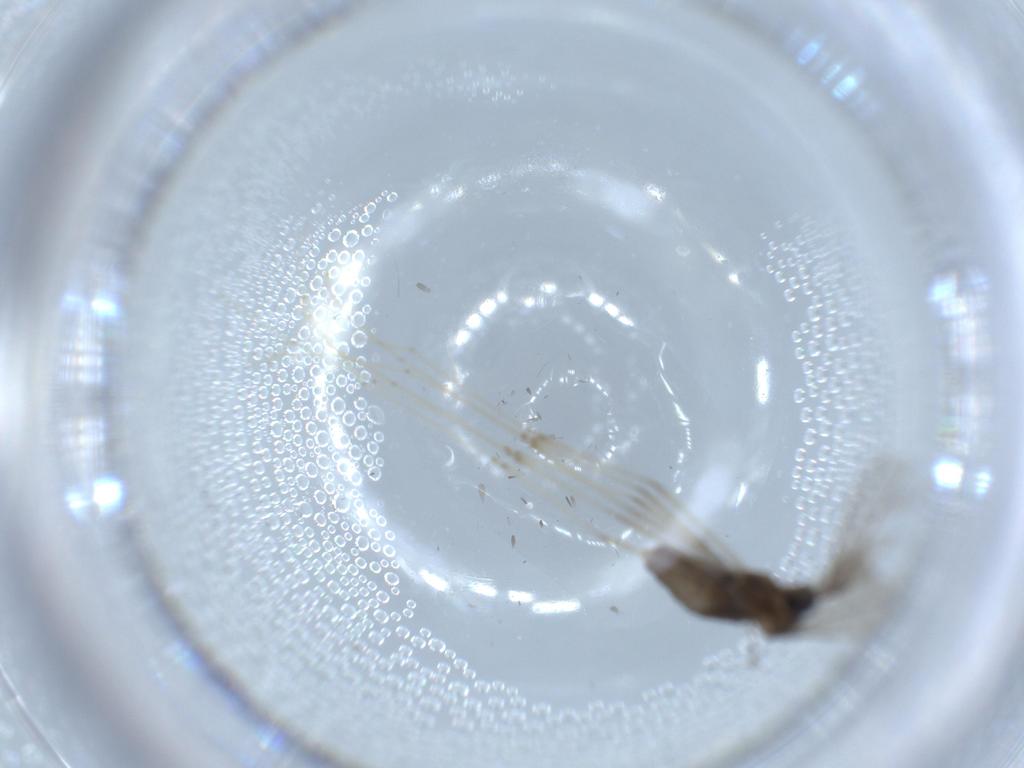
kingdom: Animalia
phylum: Arthropoda
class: Insecta
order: Diptera
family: Cecidomyiidae
